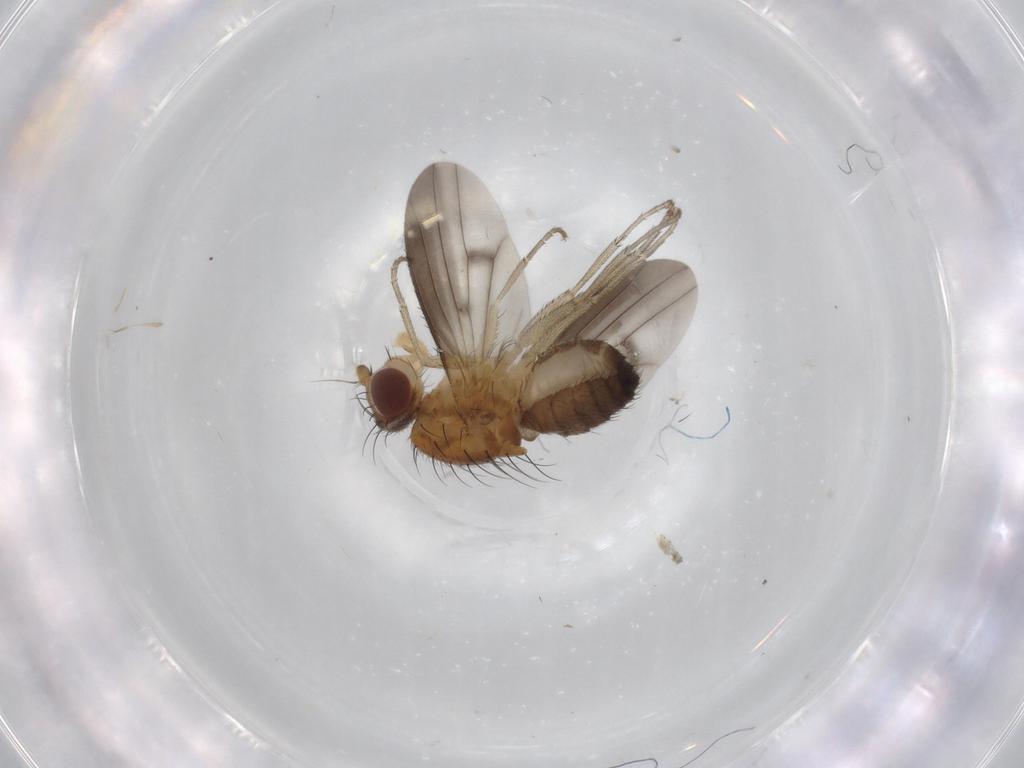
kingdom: Animalia
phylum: Arthropoda
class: Insecta
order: Diptera
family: Heleomyzidae
